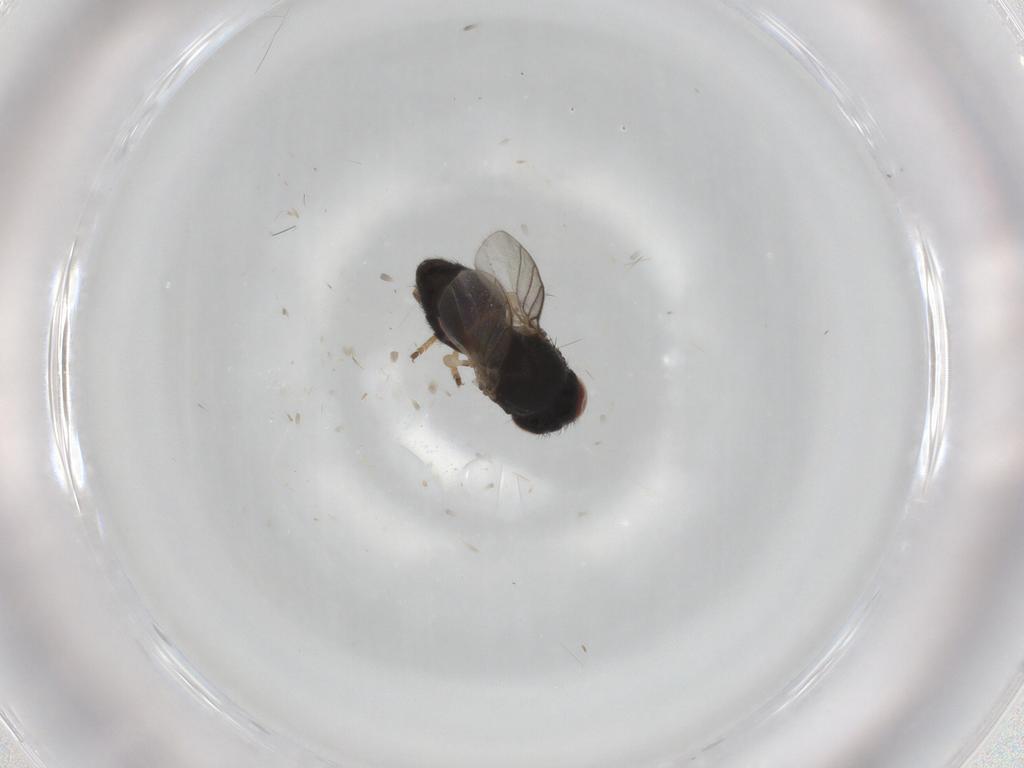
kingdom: Animalia
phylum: Arthropoda
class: Insecta
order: Diptera
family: Chloropidae
